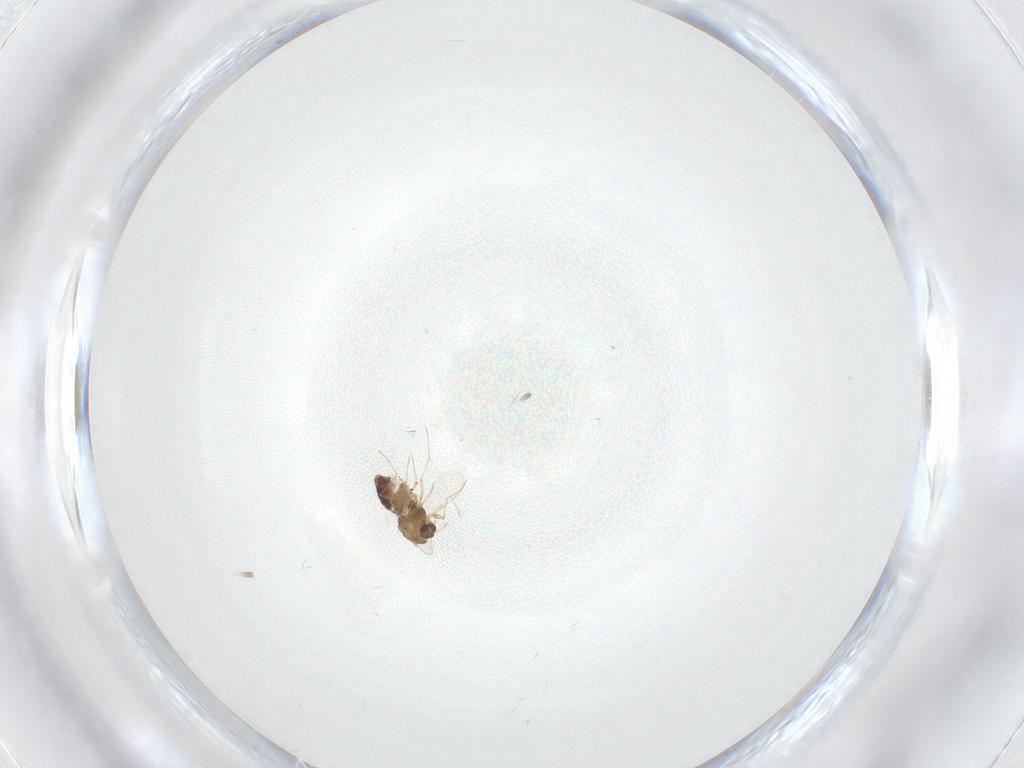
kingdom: Animalia
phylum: Arthropoda
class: Insecta
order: Diptera
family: Chironomidae
